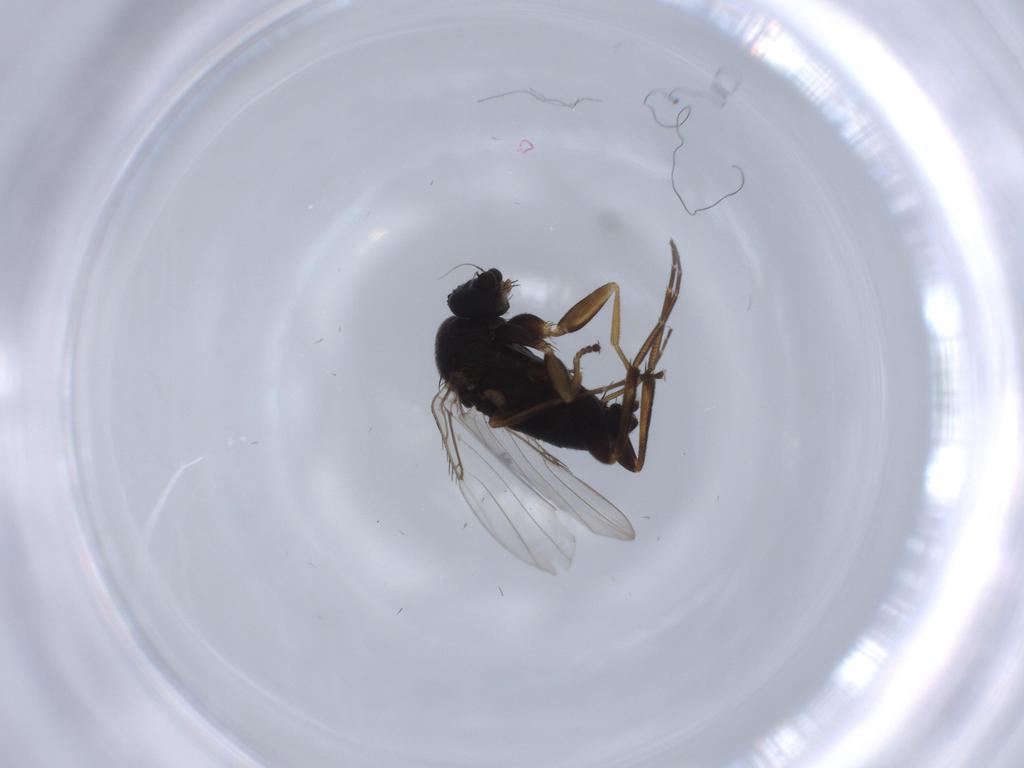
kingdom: Animalia
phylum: Arthropoda
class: Insecta
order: Diptera
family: Phoridae
